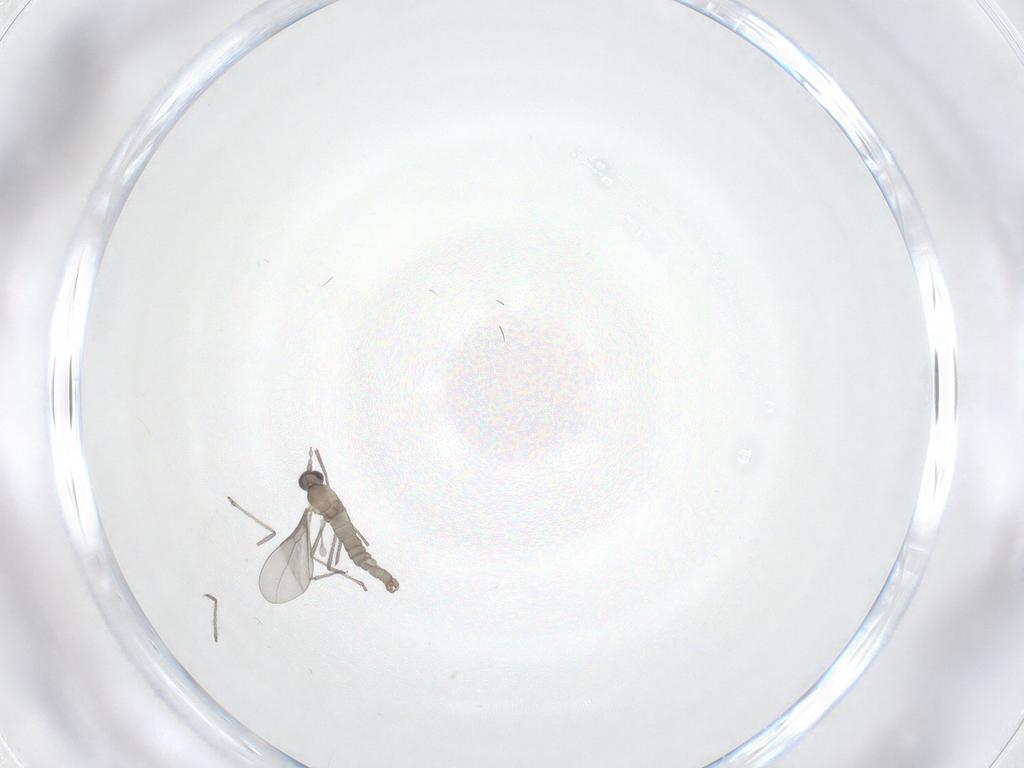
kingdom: Animalia
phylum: Arthropoda
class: Insecta
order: Diptera
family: Cecidomyiidae
